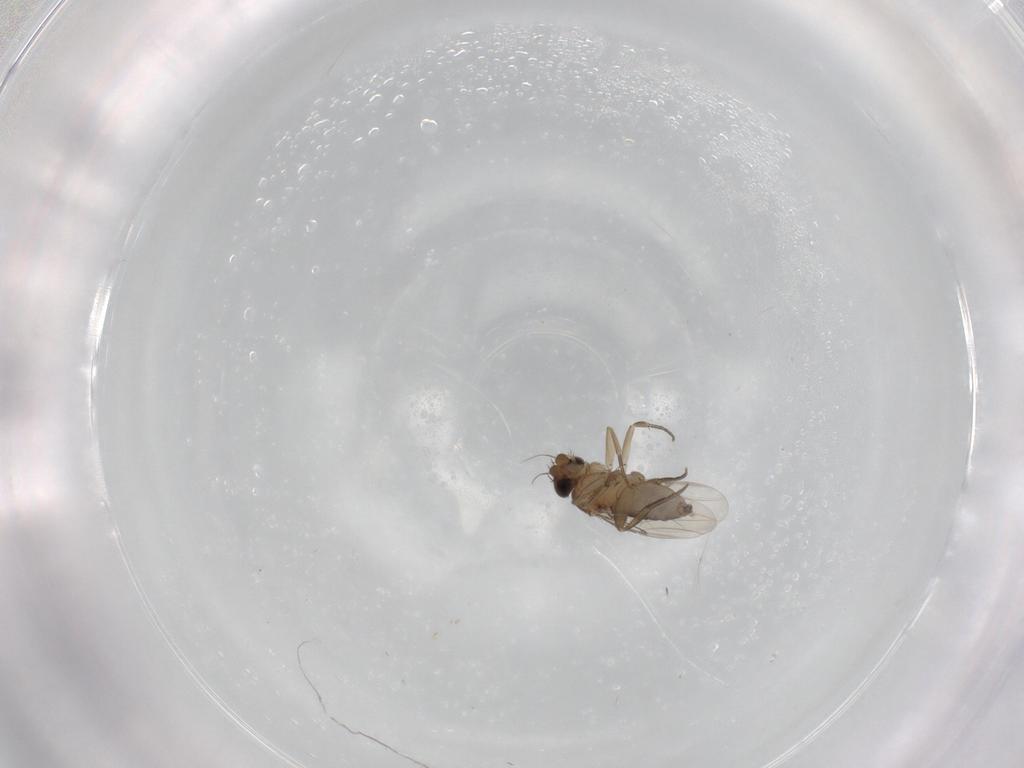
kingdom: Animalia
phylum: Arthropoda
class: Insecta
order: Diptera
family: Phoridae
